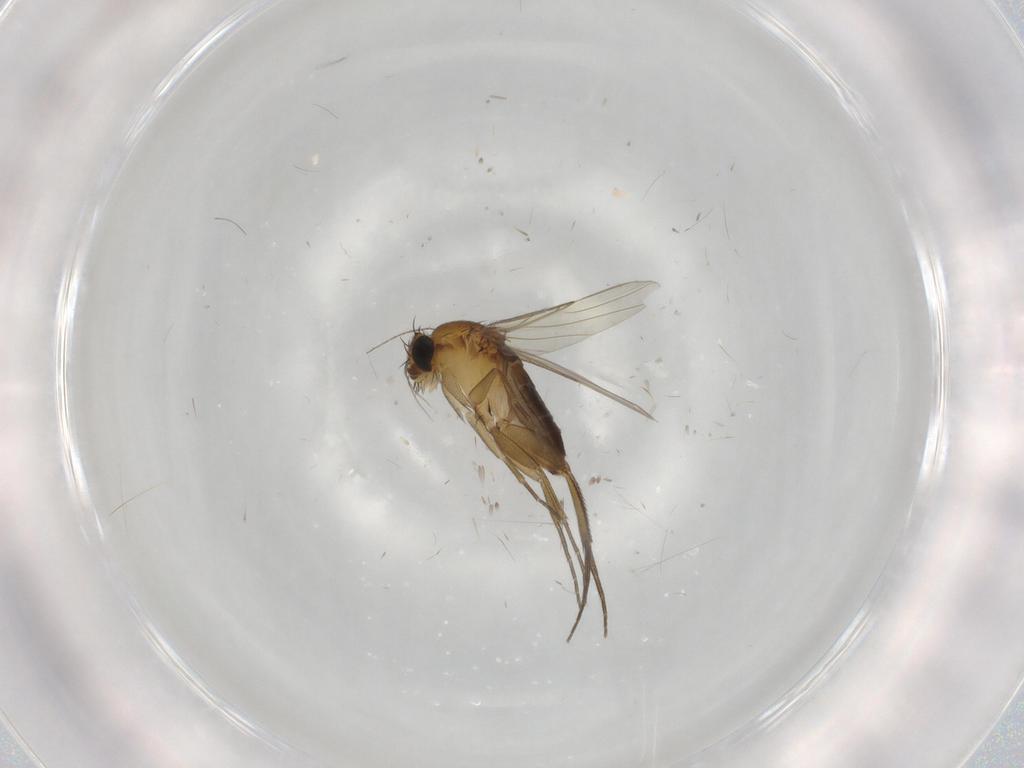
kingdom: Animalia
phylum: Arthropoda
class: Insecta
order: Diptera
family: Phoridae
